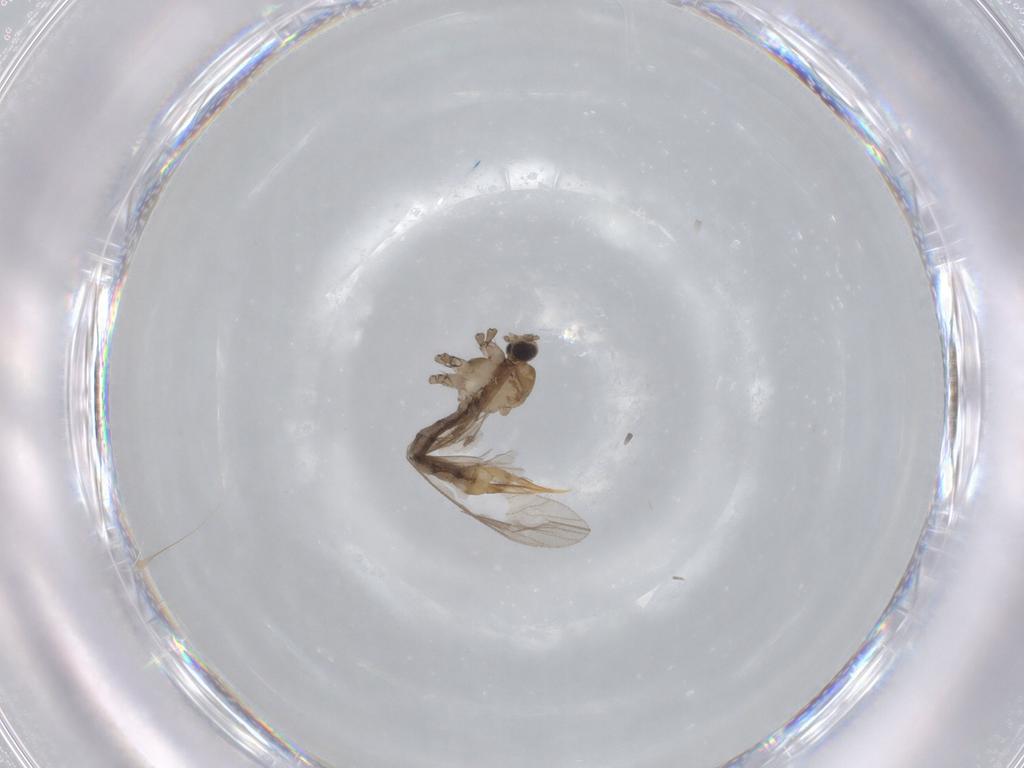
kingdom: Animalia
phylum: Arthropoda
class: Insecta
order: Diptera
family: Limoniidae
